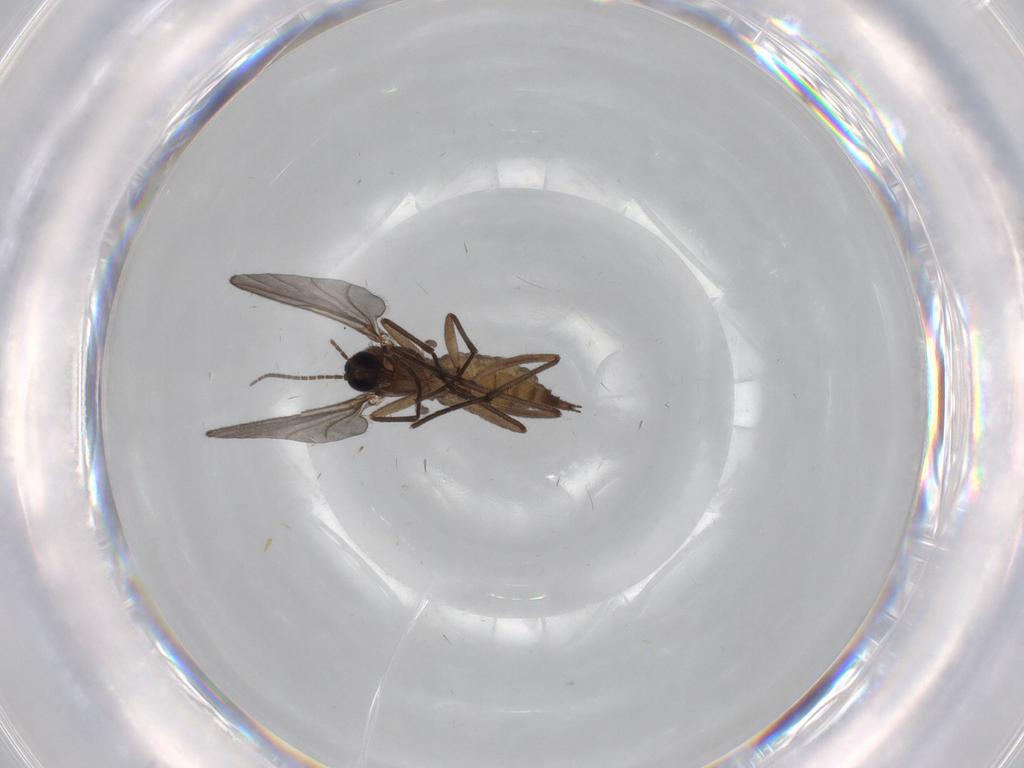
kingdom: Animalia
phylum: Arthropoda
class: Insecta
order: Diptera
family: Sciaridae
